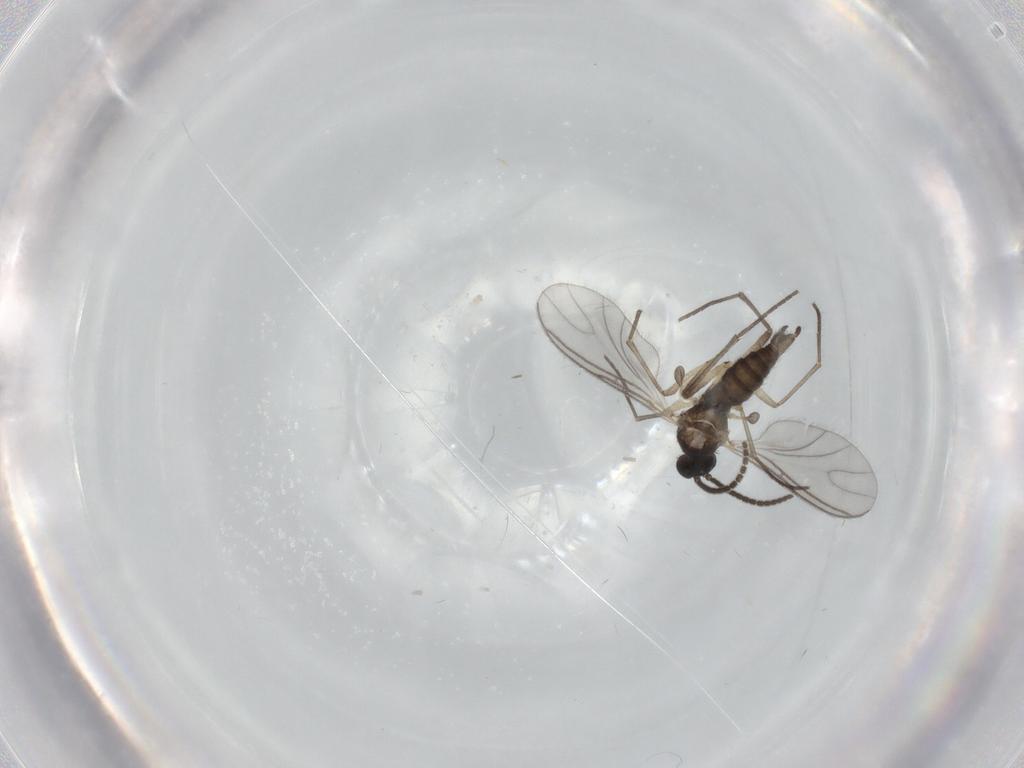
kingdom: Animalia
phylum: Arthropoda
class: Insecta
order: Diptera
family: Sciaridae
